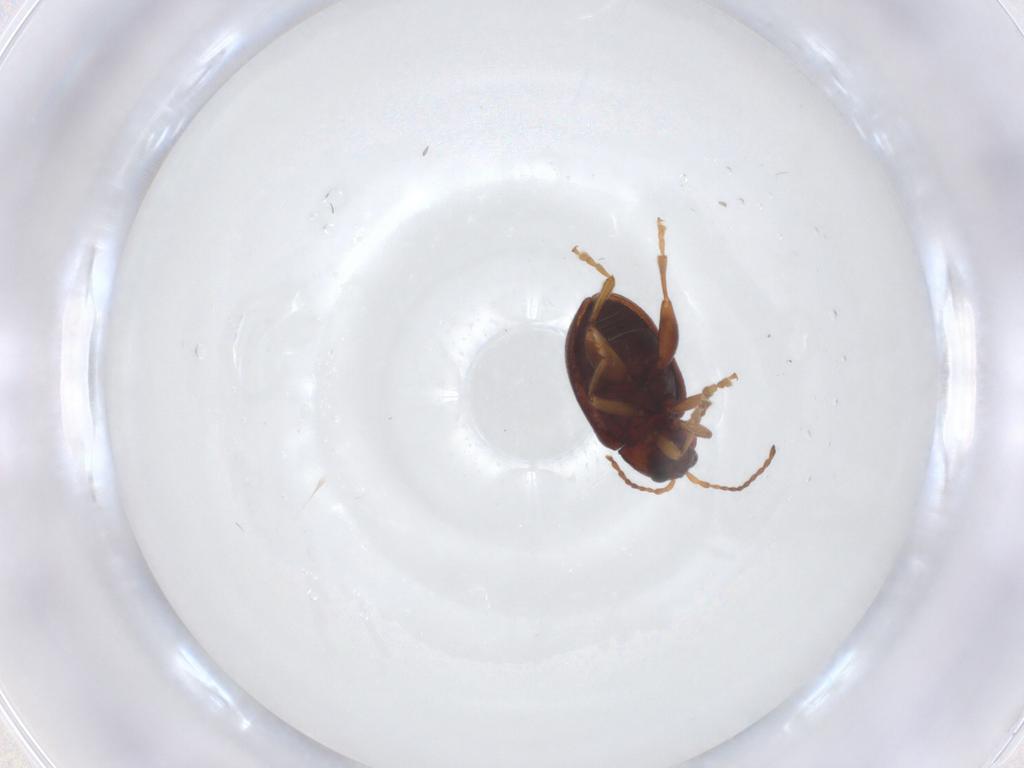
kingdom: Animalia
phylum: Arthropoda
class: Insecta
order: Coleoptera
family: Chrysomelidae
